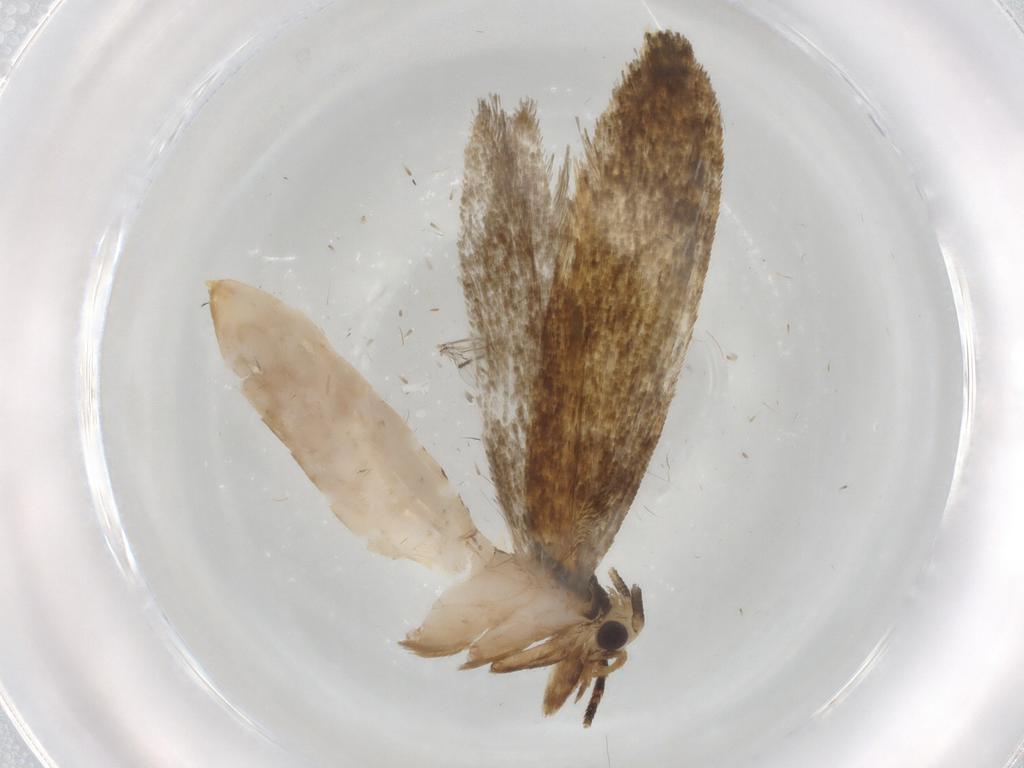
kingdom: Animalia
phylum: Arthropoda
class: Insecta
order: Lepidoptera
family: Tineidae
